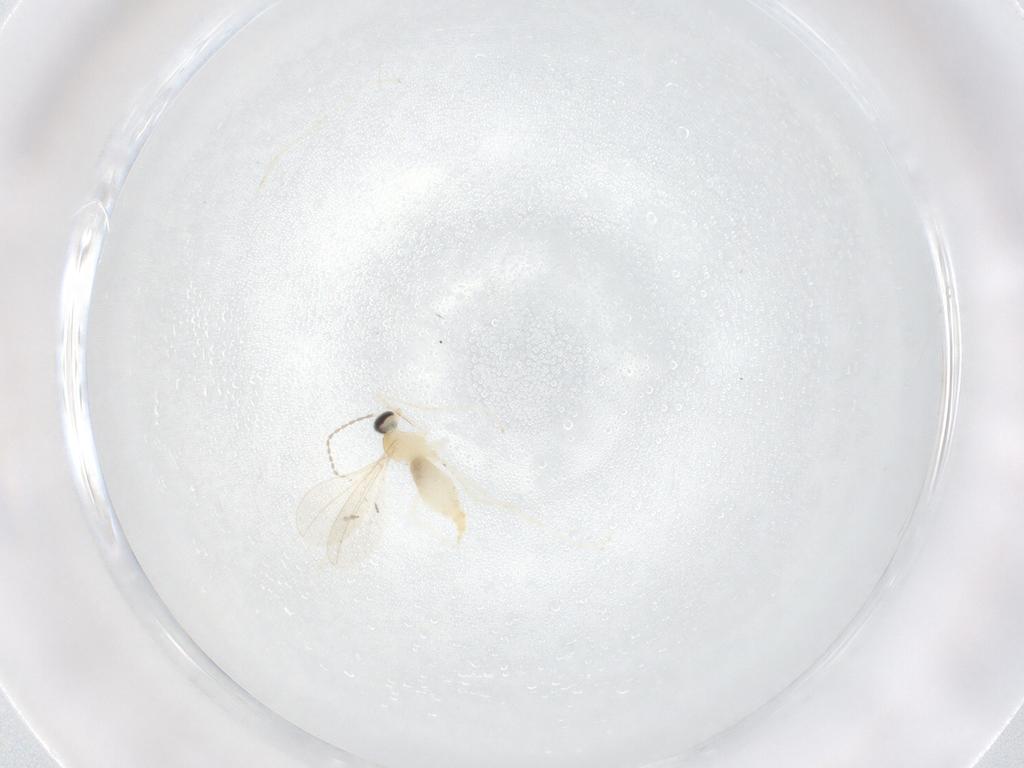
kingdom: Animalia
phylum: Arthropoda
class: Insecta
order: Diptera
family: Cecidomyiidae
